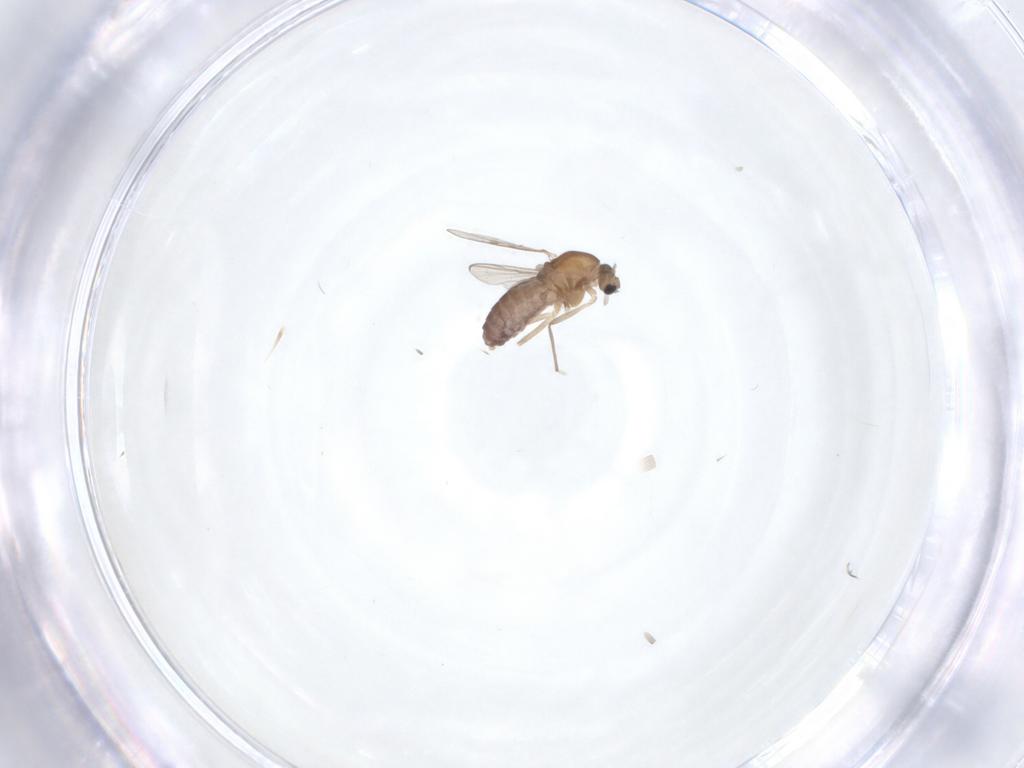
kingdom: Animalia
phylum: Arthropoda
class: Insecta
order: Diptera
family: Chironomidae
